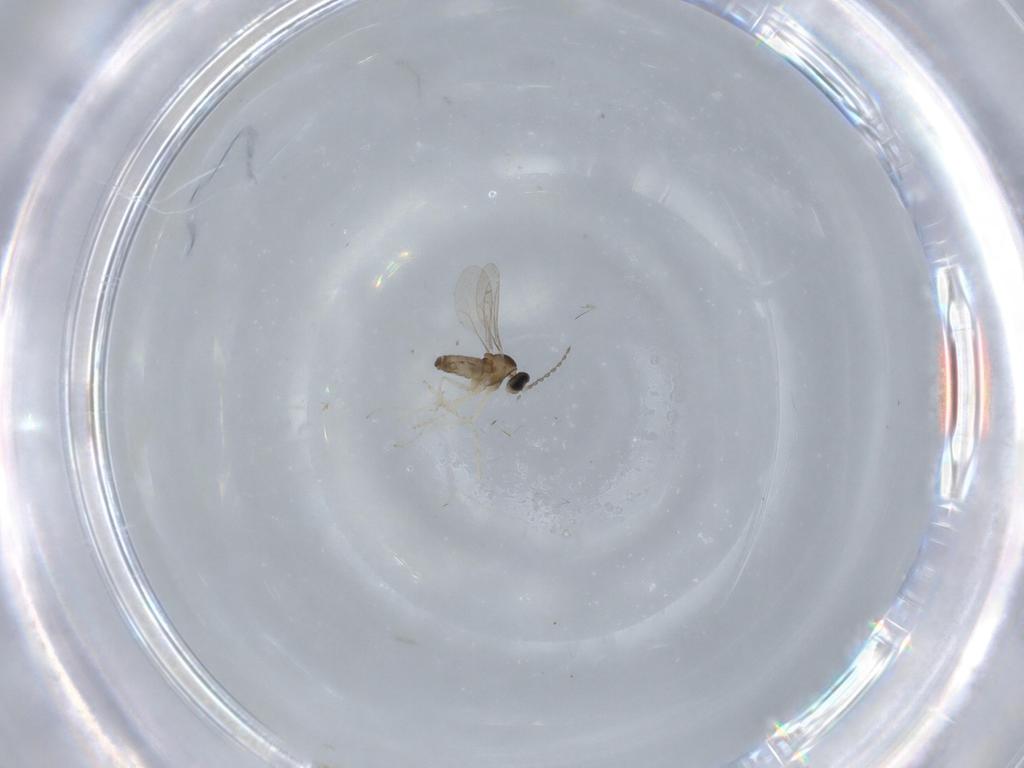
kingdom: Animalia
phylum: Arthropoda
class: Insecta
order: Diptera
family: Cecidomyiidae
